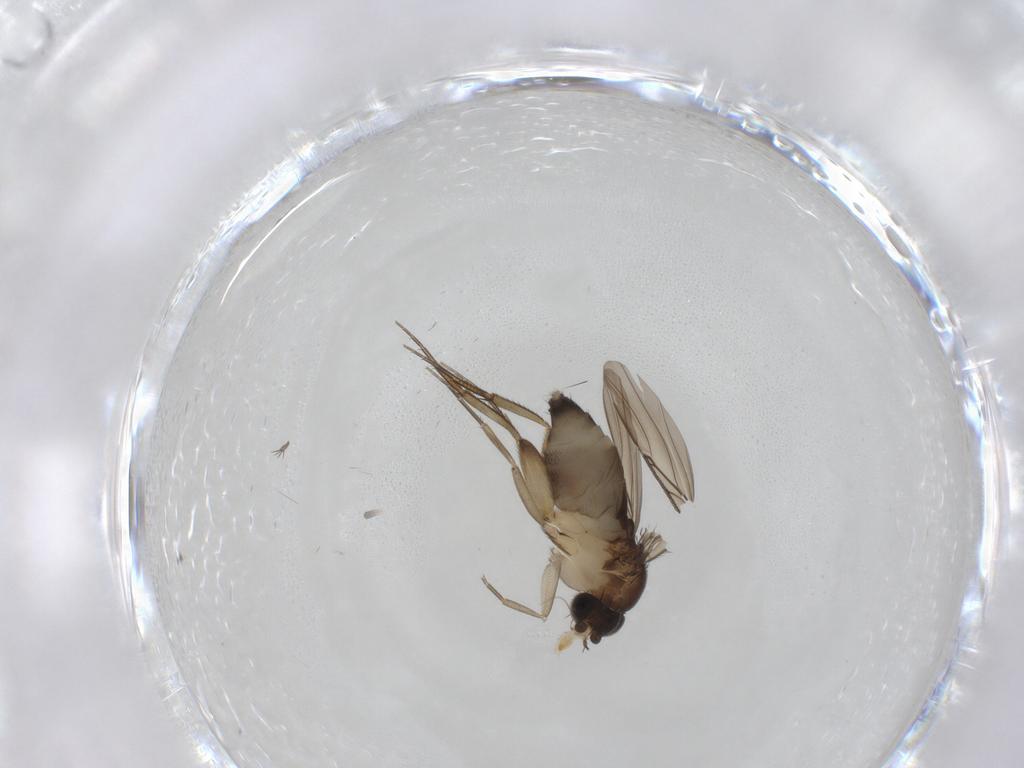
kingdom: Animalia
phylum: Arthropoda
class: Insecta
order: Diptera
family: Phoridae
